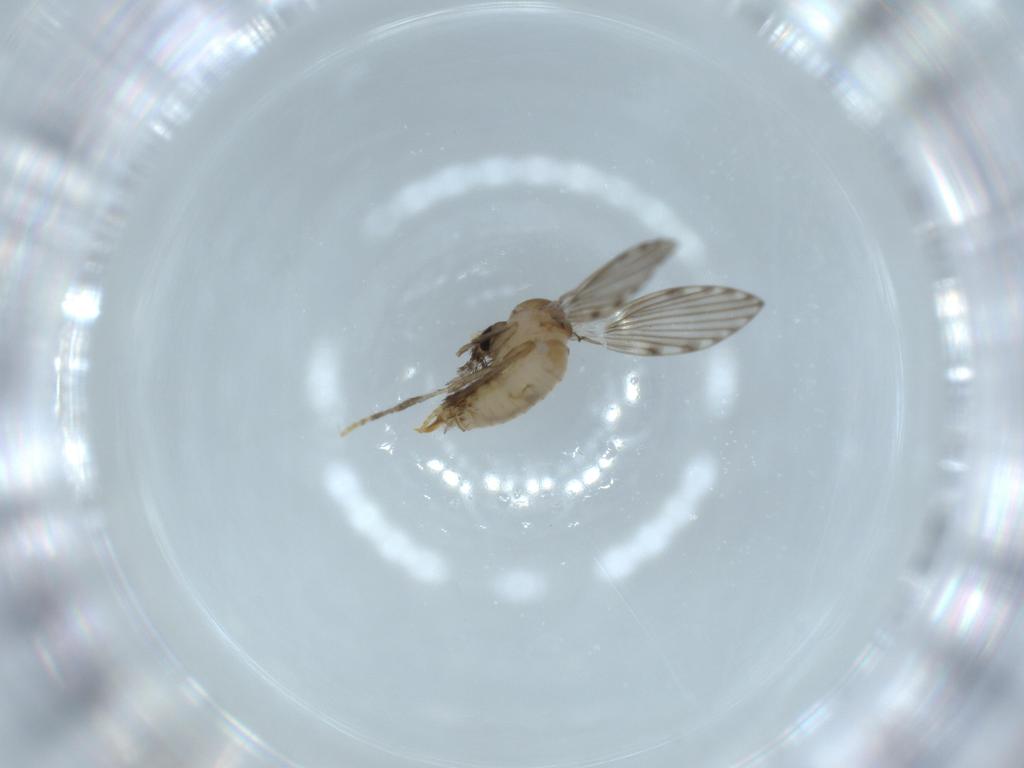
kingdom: Animalia
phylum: Arthropoda
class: Insecta
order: Diptera
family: Psychodidae
